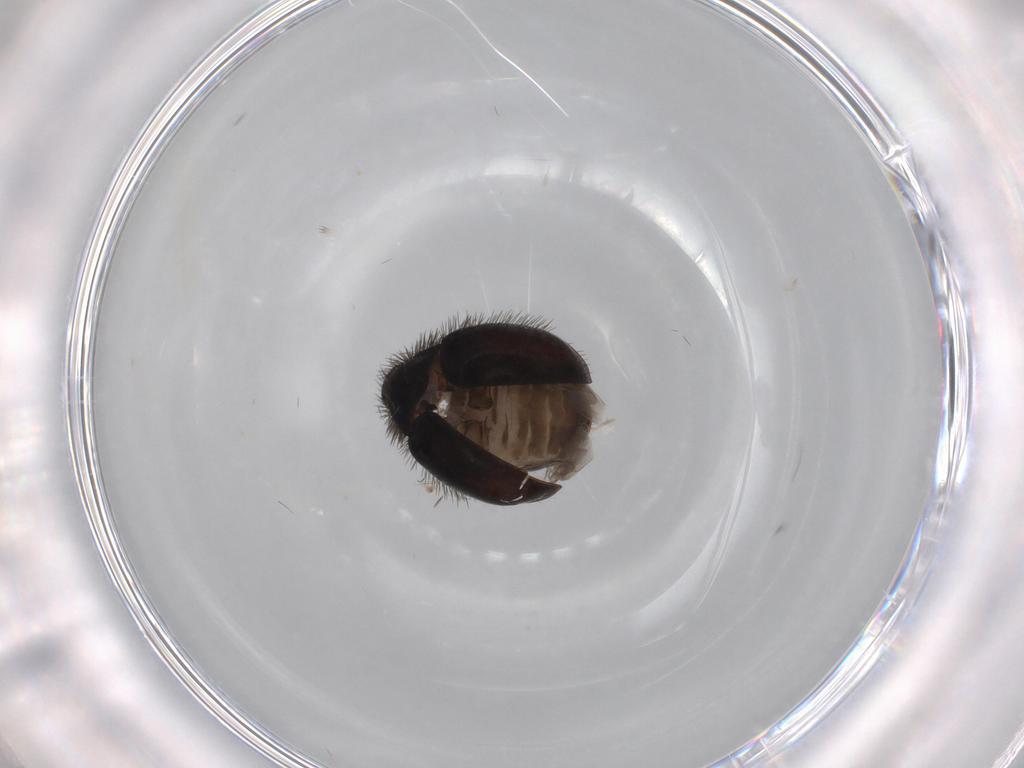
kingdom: Animalia
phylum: Arthropoda
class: Insecta
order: Coleoptera
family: Dermestidae
